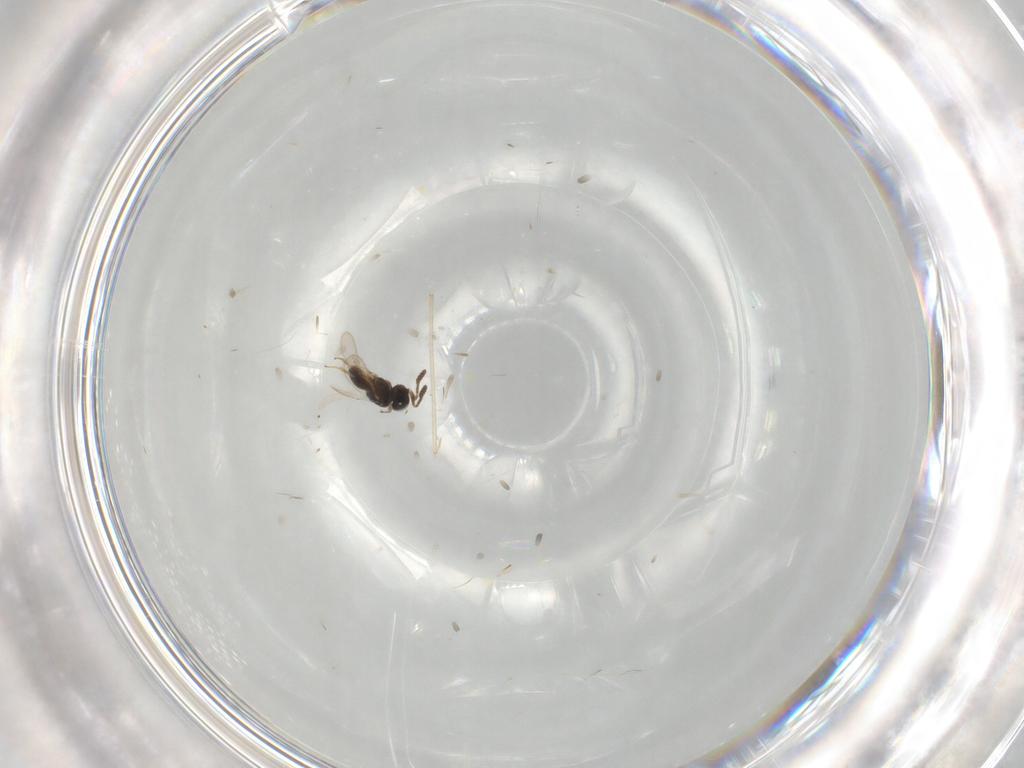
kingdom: Animalia
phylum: Arthropoda
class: Insecta
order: Hymenoptera
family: Scelionidae
